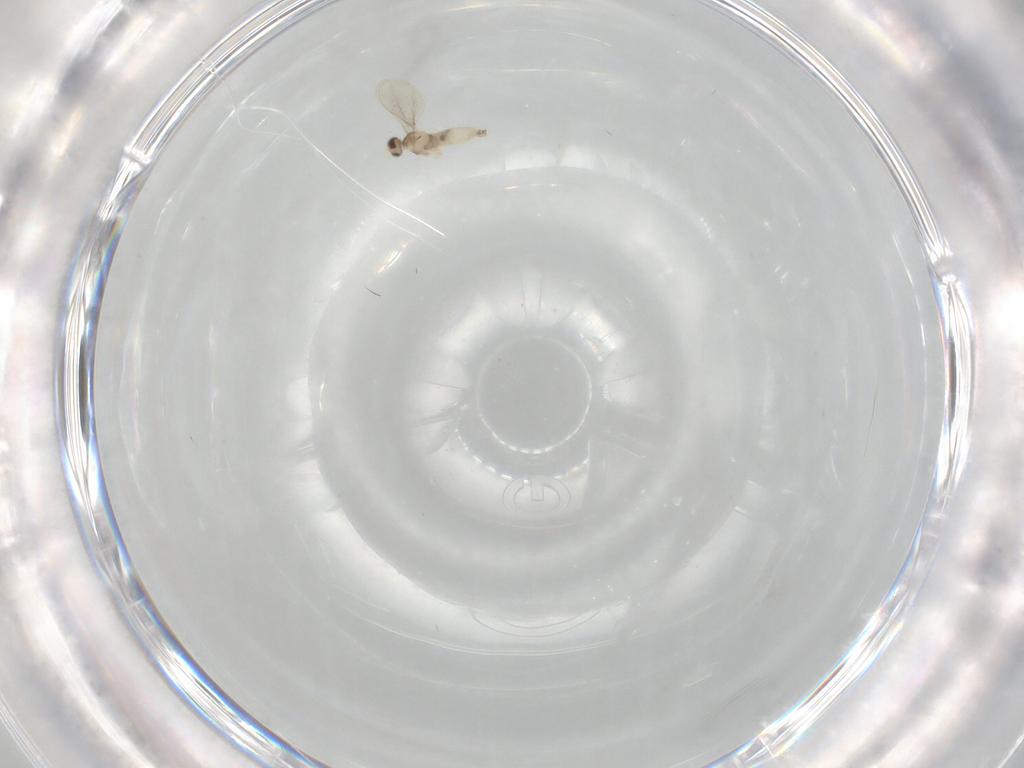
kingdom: Animalia
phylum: Arthropoda
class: Insecta
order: Diptera
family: Cecidomyiidae
